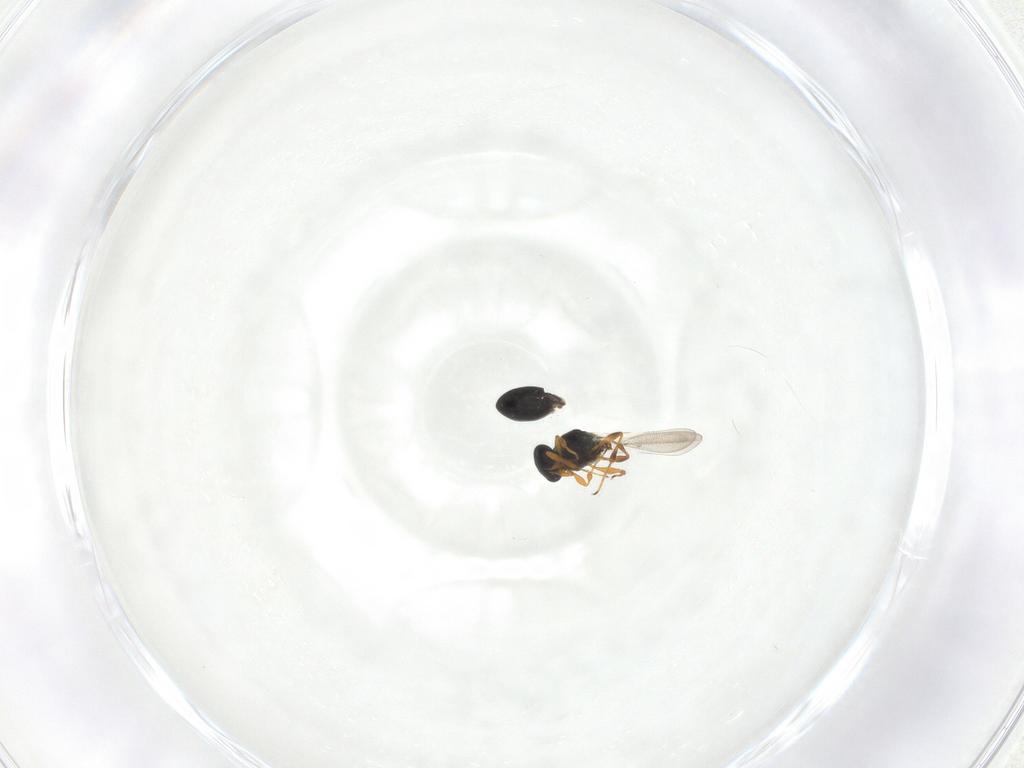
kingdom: Animalia
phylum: Arthropoda
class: Insecta
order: Hymenoptera
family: Platygastridae
